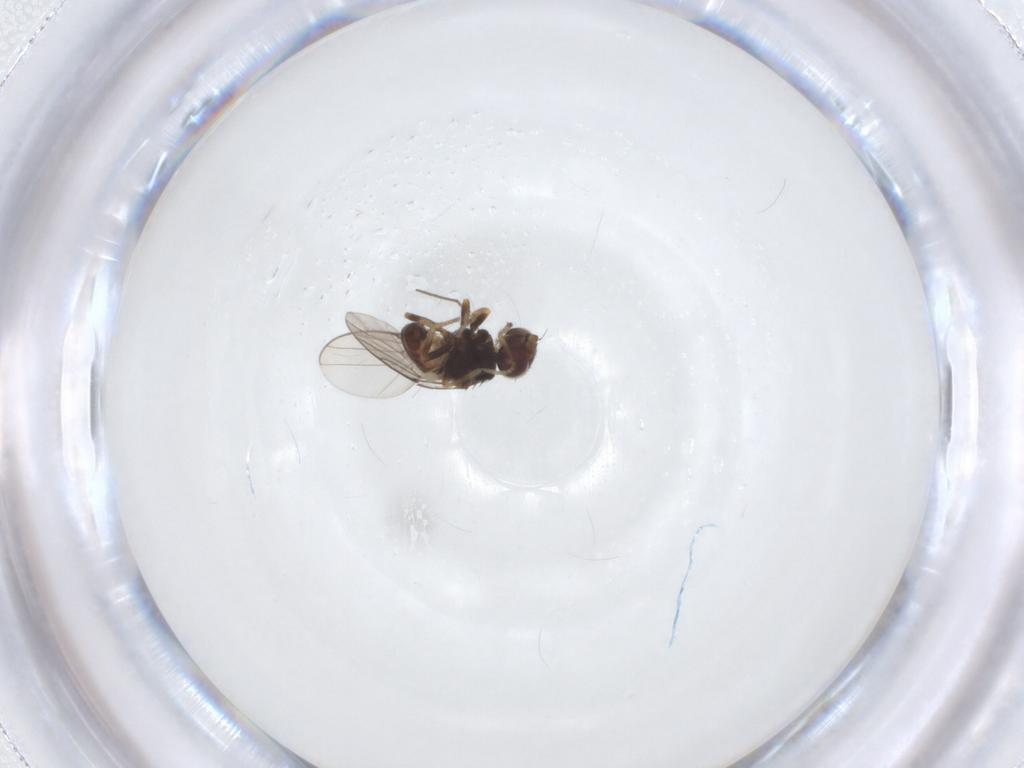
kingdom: Animalia
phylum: Arthropoda
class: Insecta
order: Diptera
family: Chloropidae
